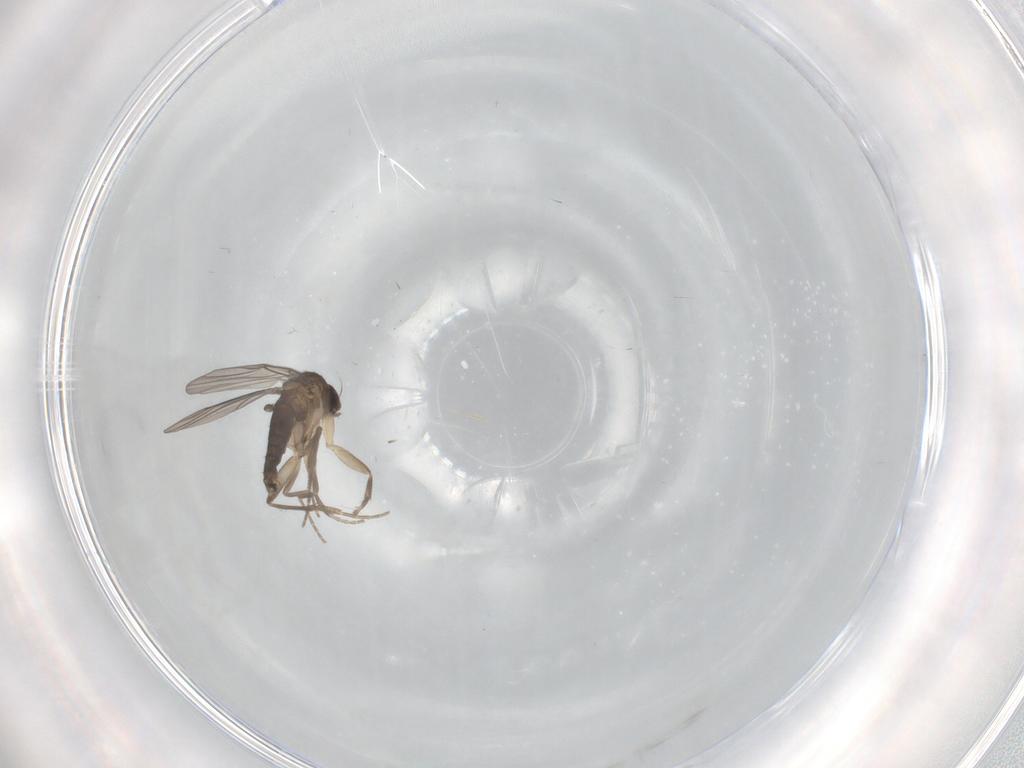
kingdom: Animalia
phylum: Arthropoda
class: Insecta
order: Diptera
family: Phoridae
